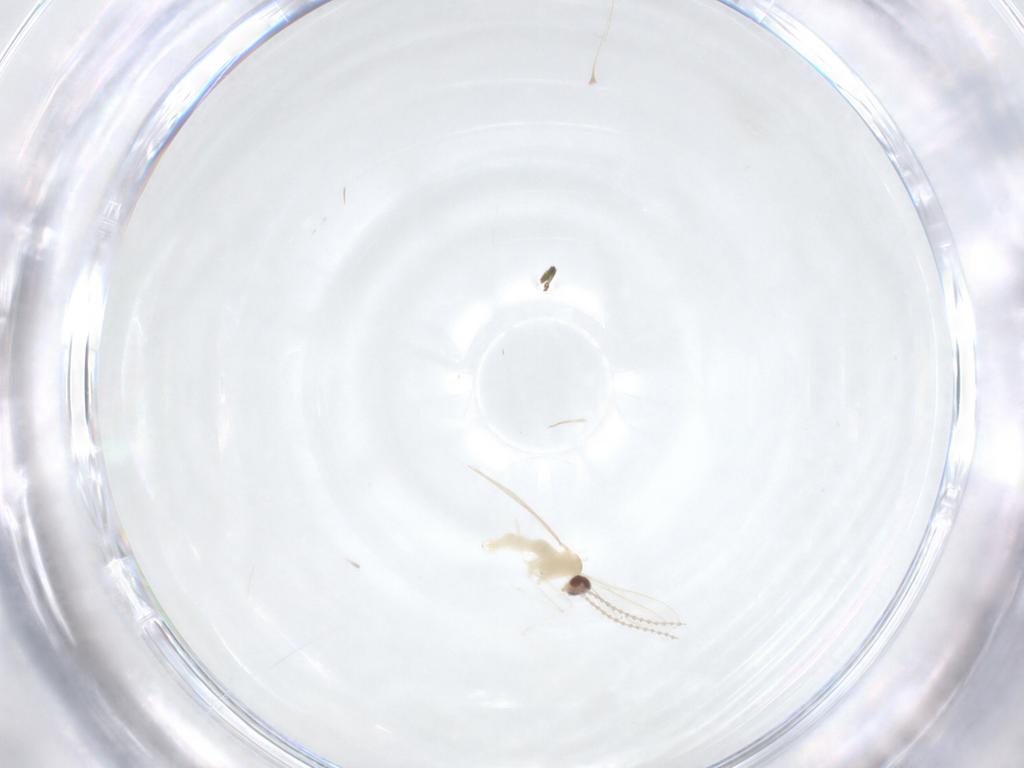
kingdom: Animalia
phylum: Arthropoda
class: Insecta
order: Diptera
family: Cecidomyiidae
